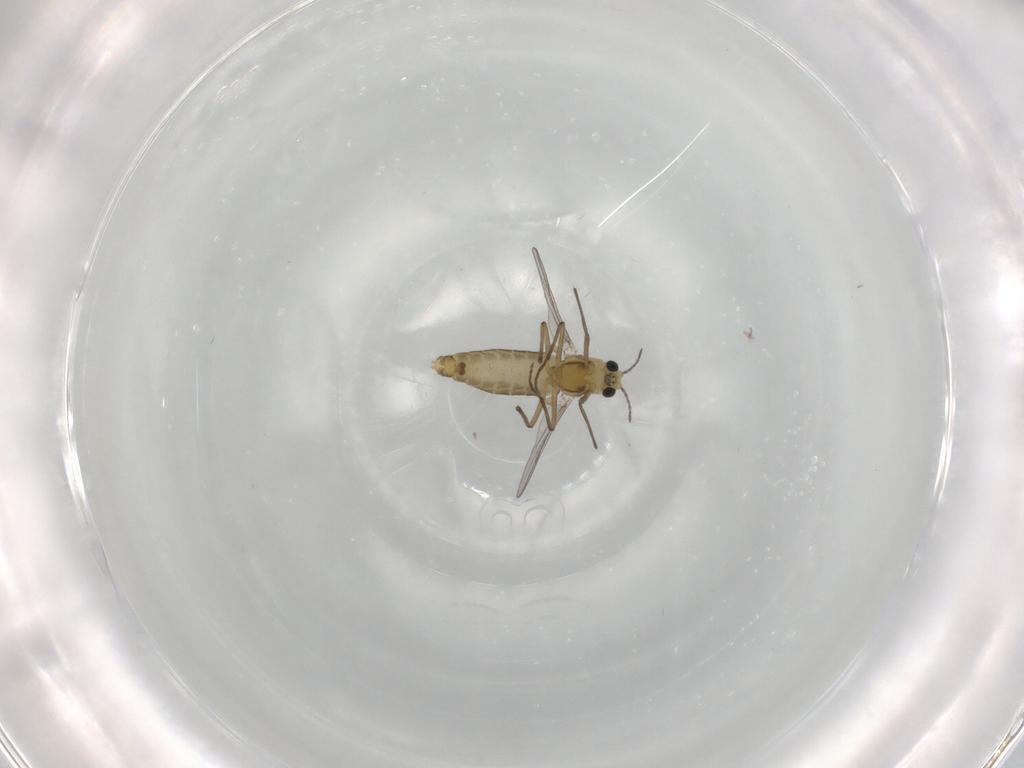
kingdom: Animalia
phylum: Arthropoda
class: Insecta
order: Diptera
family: Chironomidae
